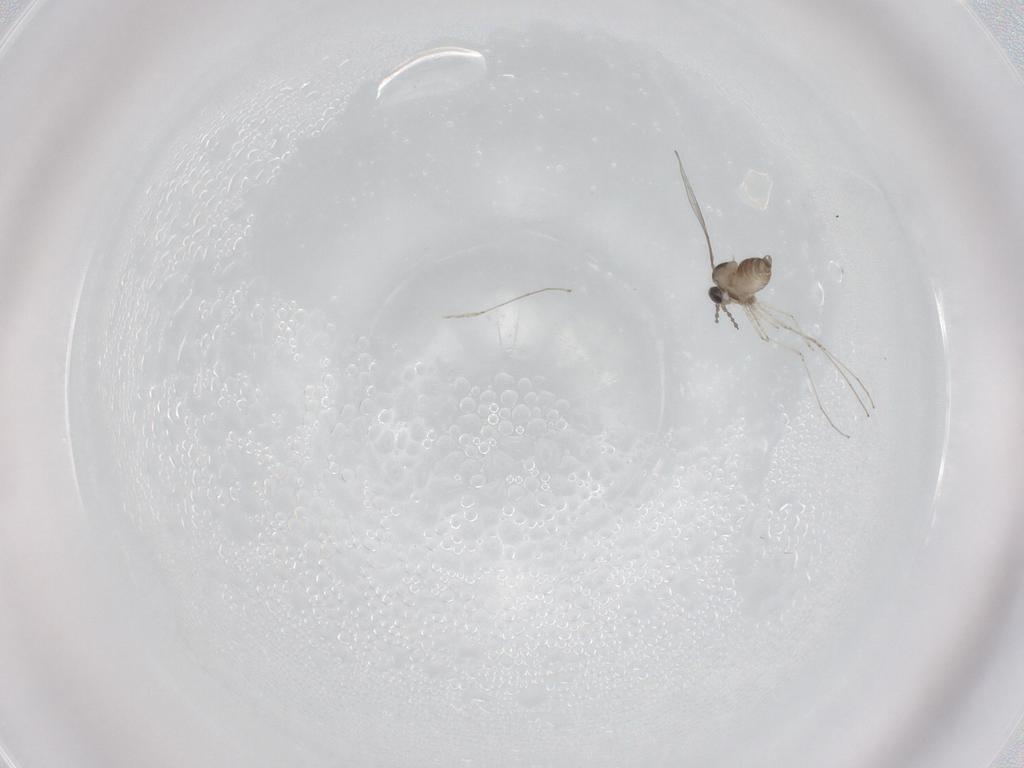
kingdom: Animalia
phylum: Arthropoda
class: Insecta
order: Diptera
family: Cecidomyiidae
